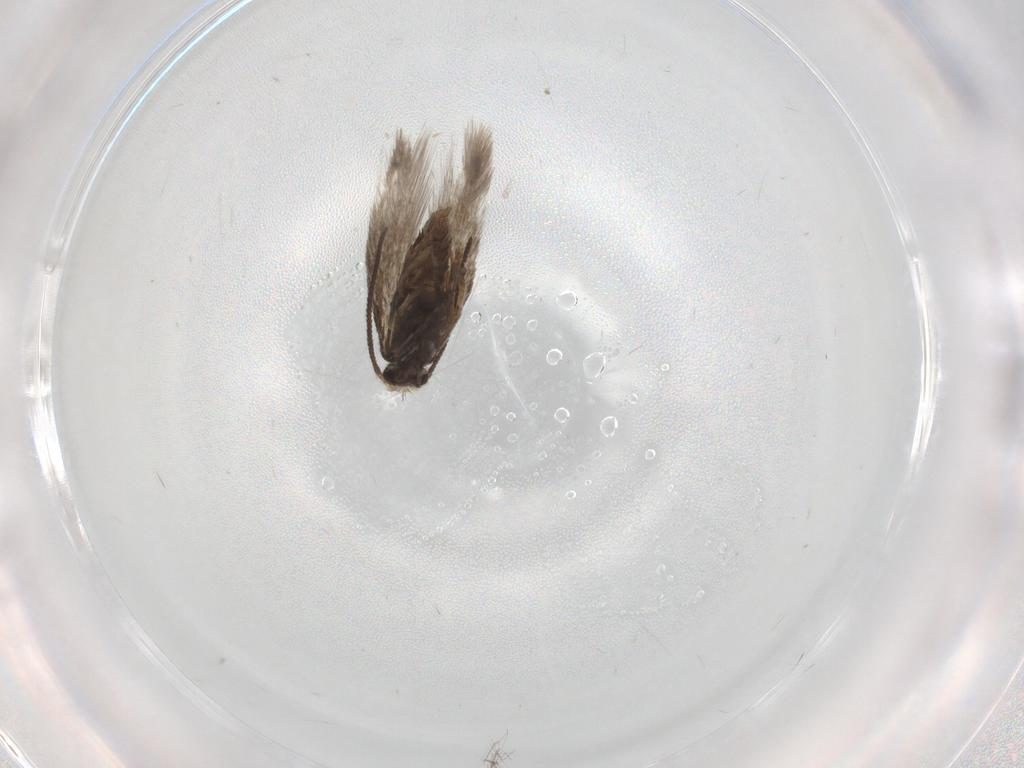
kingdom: Animalia
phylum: Arthropoda
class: Insecta
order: Lepidoptera
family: Nepticulidae
